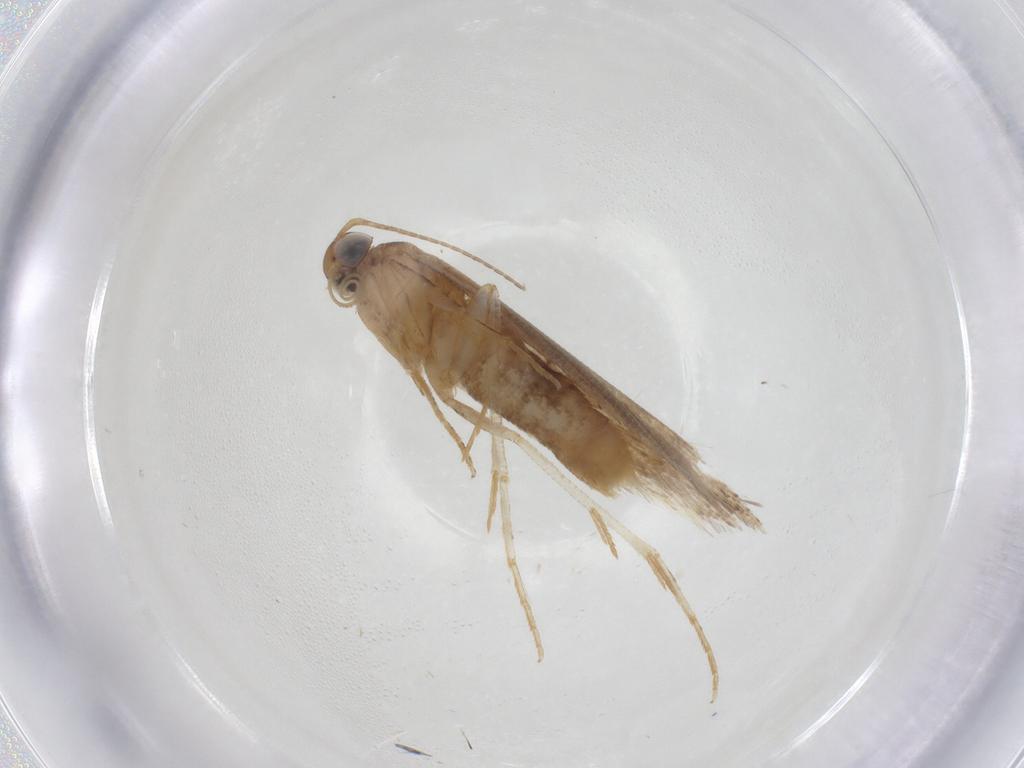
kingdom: Animalia
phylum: Arthropoda
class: Insecta
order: Lepidoptera
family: Gelechiidae
